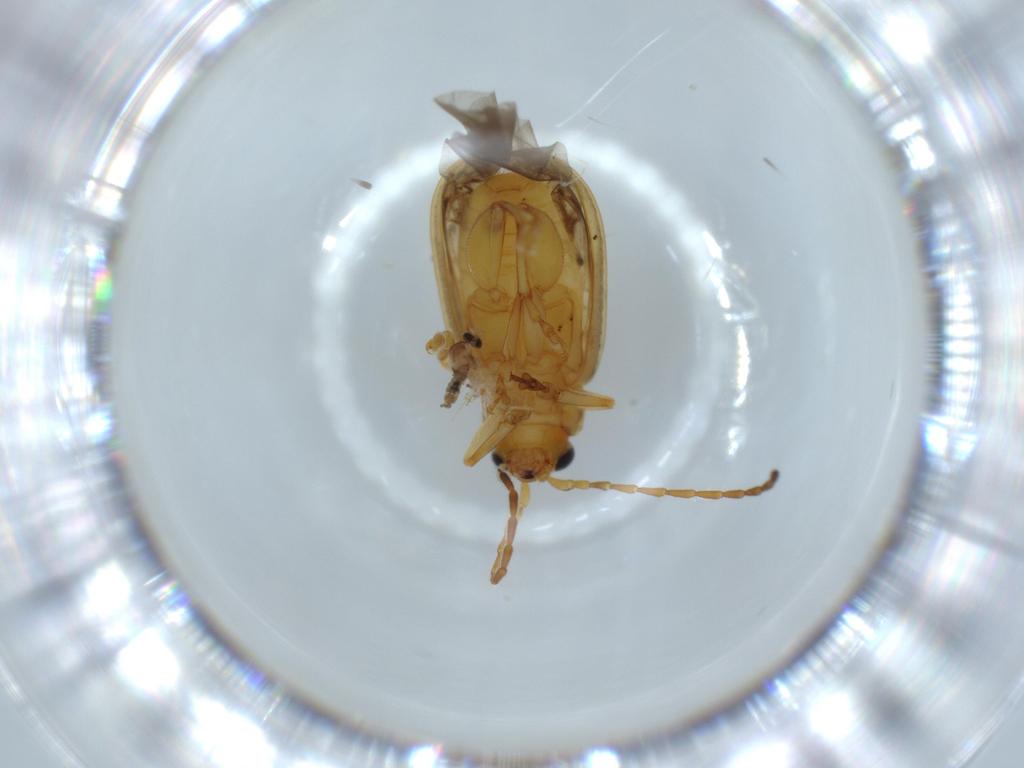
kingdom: Animalia
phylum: Arthropoda
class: Insecta
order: Coleoptera
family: Chrysomelidae
